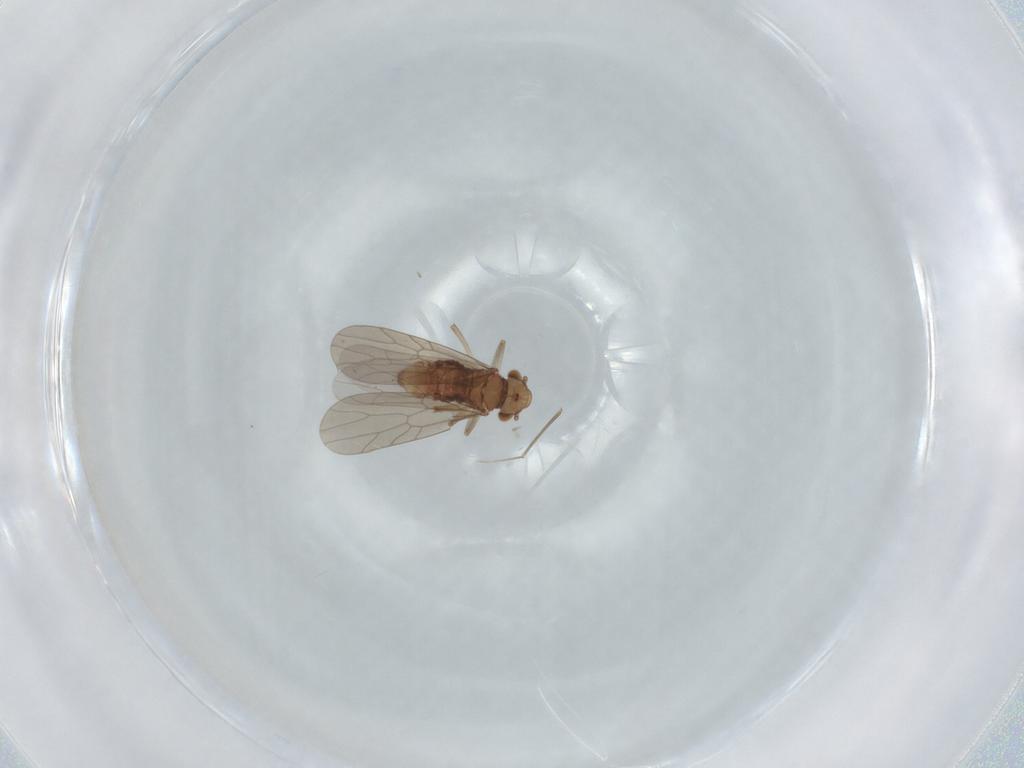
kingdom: Animalia
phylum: Arthropoda
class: Insecta
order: Psocodea
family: Lepidopsocidae
